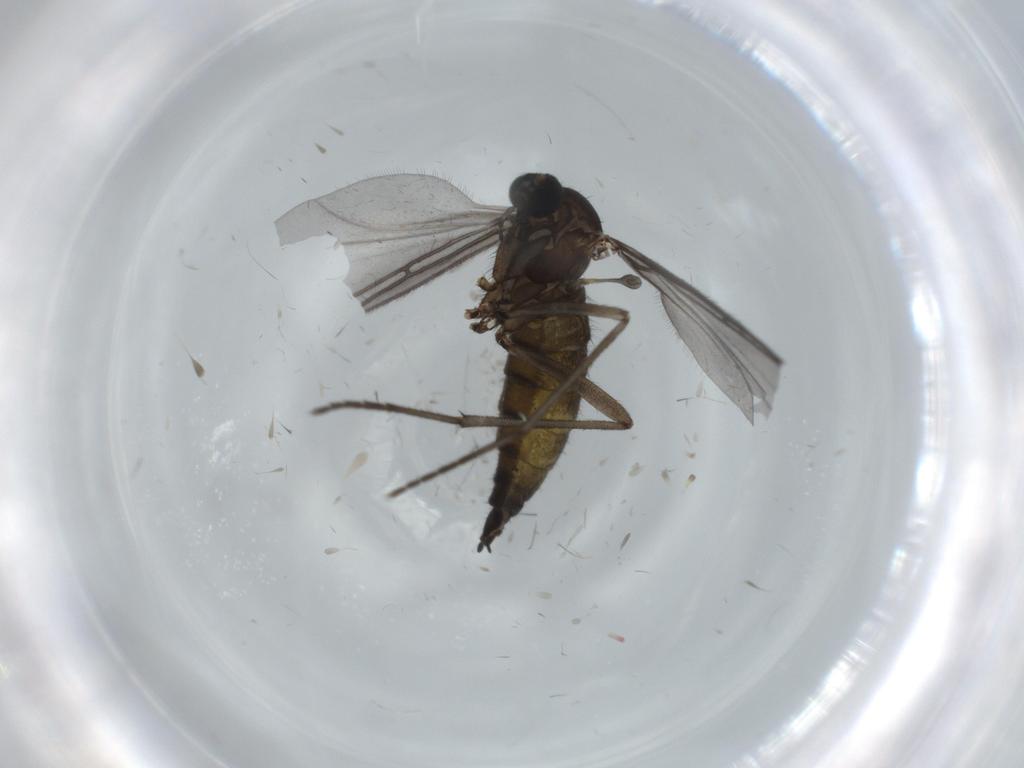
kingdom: Animalia
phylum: Arthropoda
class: Insecta
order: Diptera
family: Sciaridae
